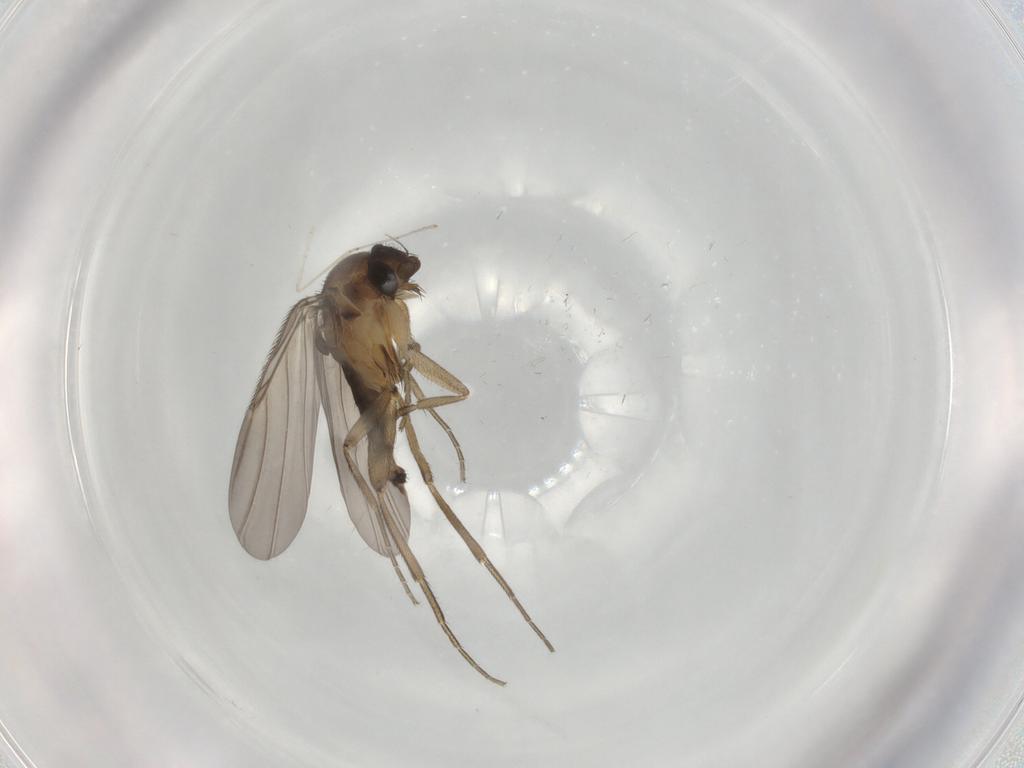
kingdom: Animalia
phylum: Arthropoda
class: Insecta
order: Diptera
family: Phoridae
